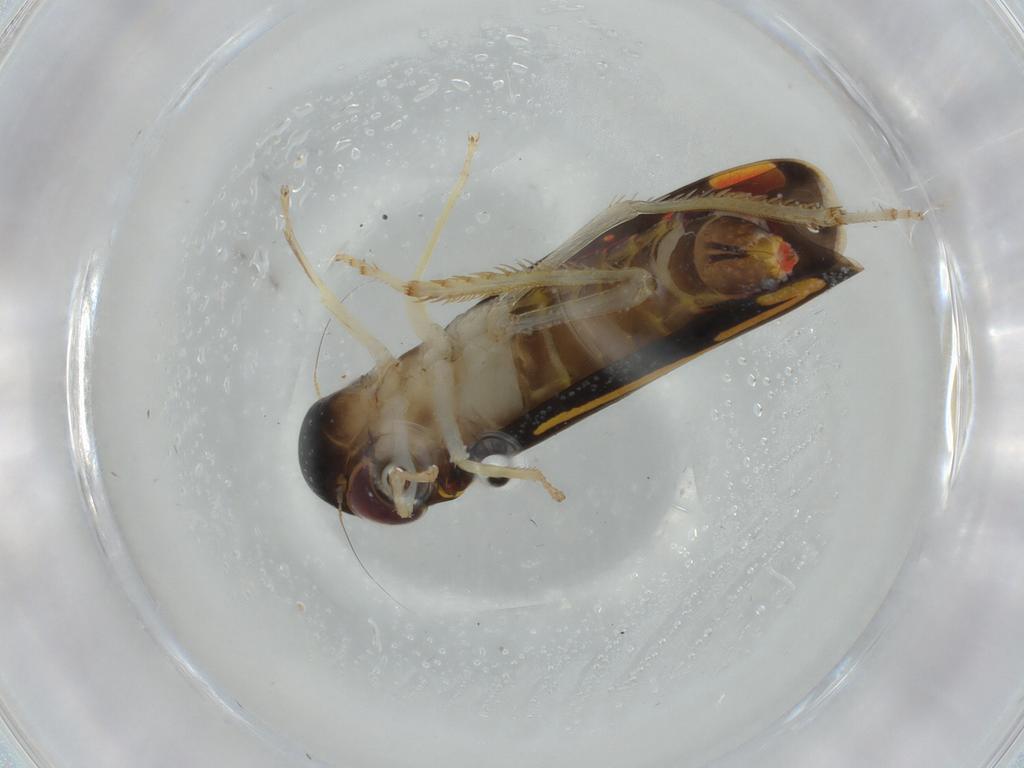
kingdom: Animalia
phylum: Arthropoda
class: Insecta
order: Hemiptera
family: Cicadellidae
